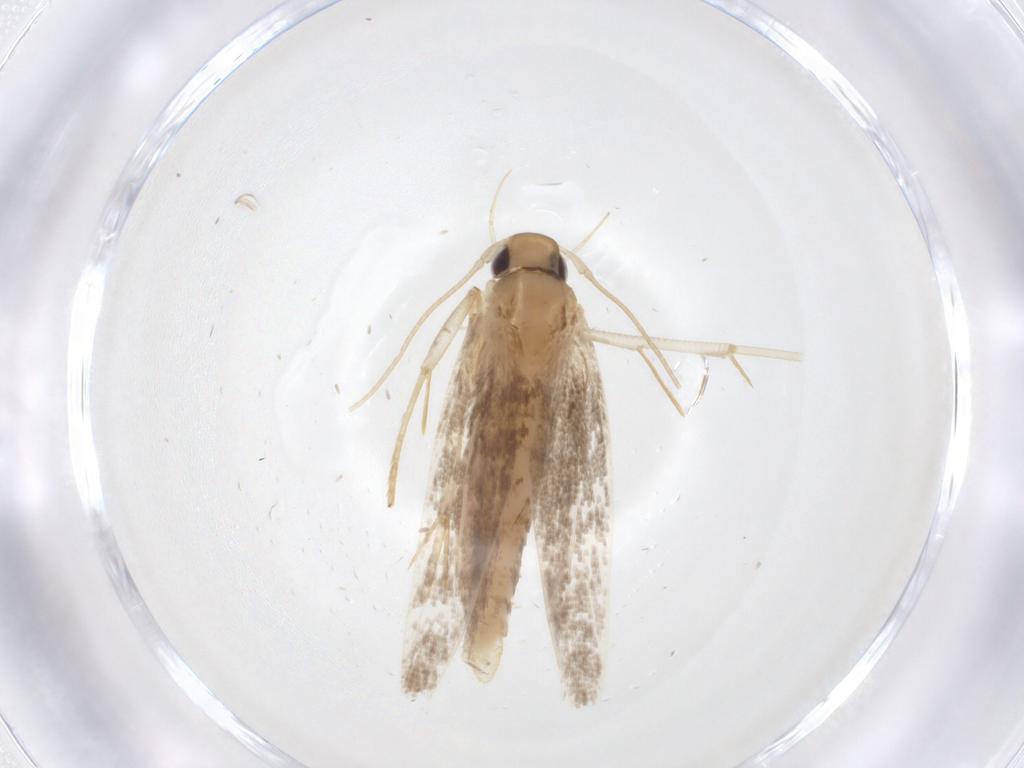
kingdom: Animalia
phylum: Arthropoda
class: Insecta
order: Lepidoptera
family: Cosmopterigidae
